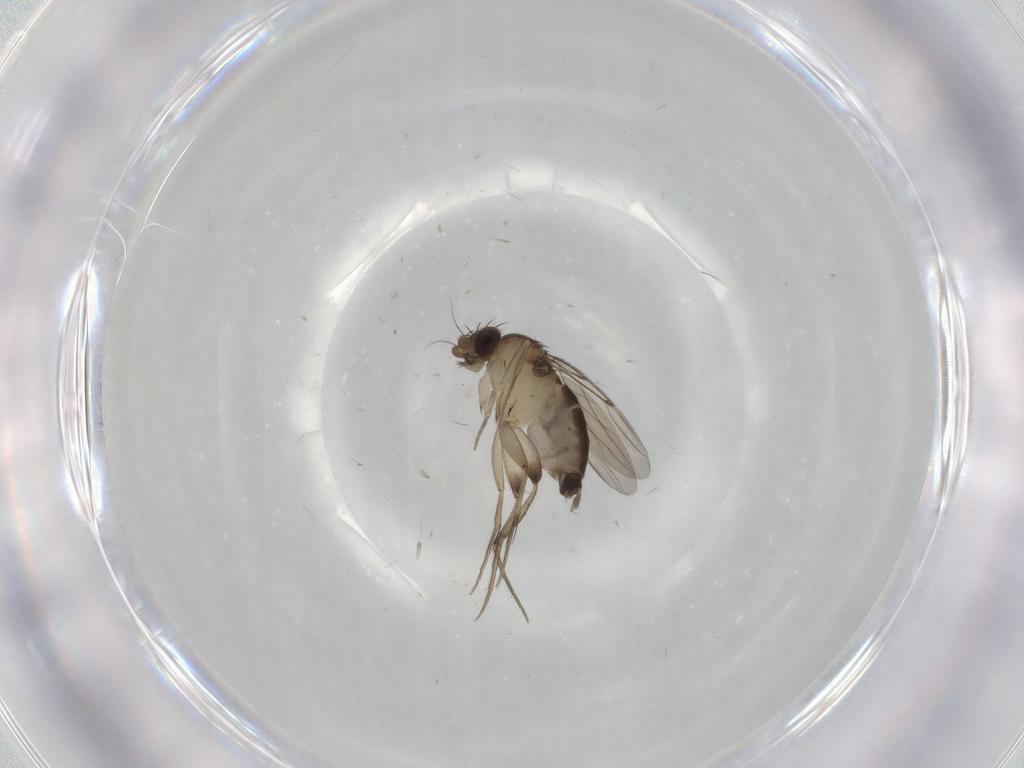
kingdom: Animalia
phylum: Arthropoda
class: Insecta
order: Diptera
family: Phoridae
